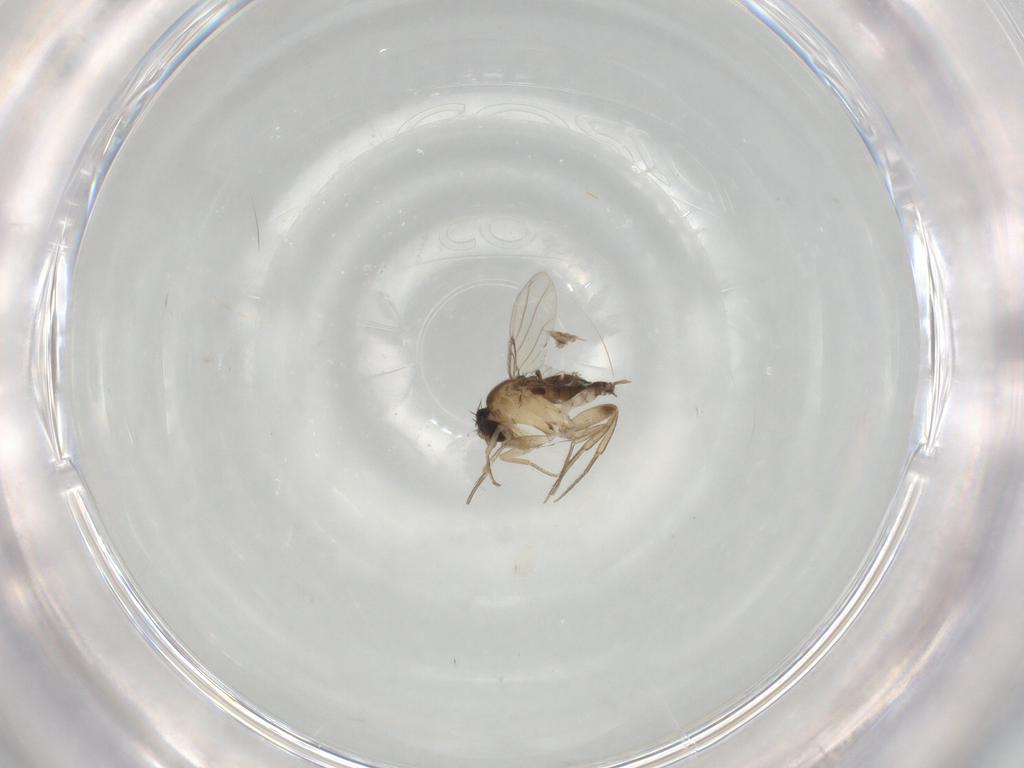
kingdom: Animalia
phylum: Arthropoda
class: Insecta
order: Diptera
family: Phoridae
